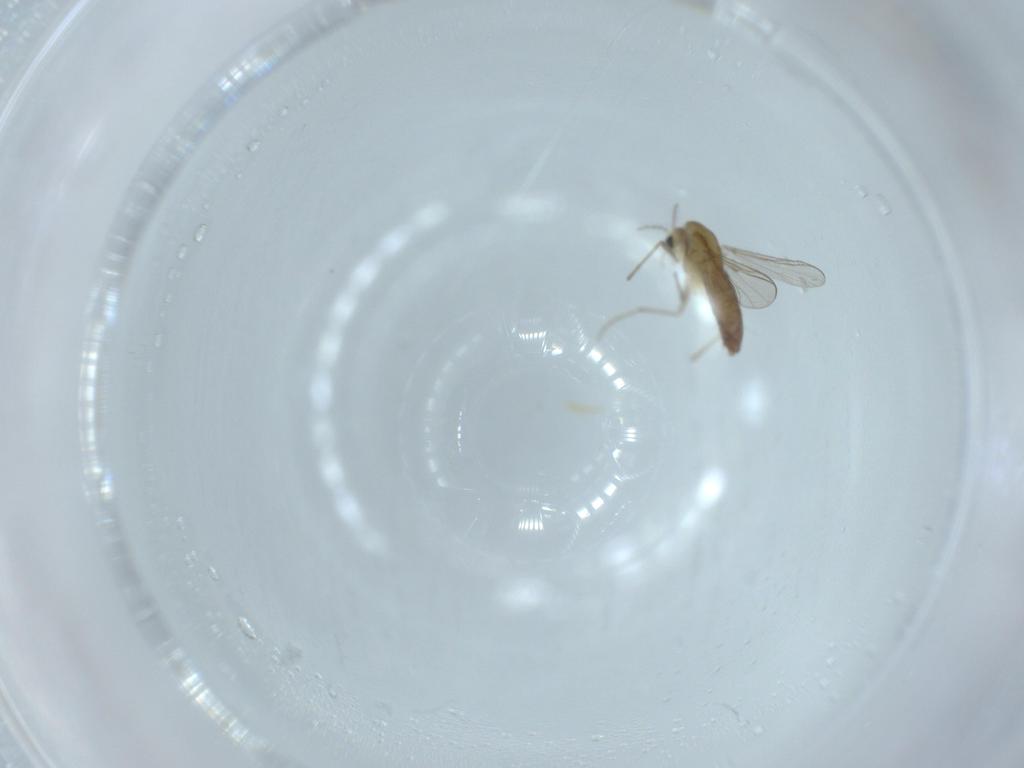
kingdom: Animalia
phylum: Arthropoda
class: Insecta
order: Diptera
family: Chironomidae
